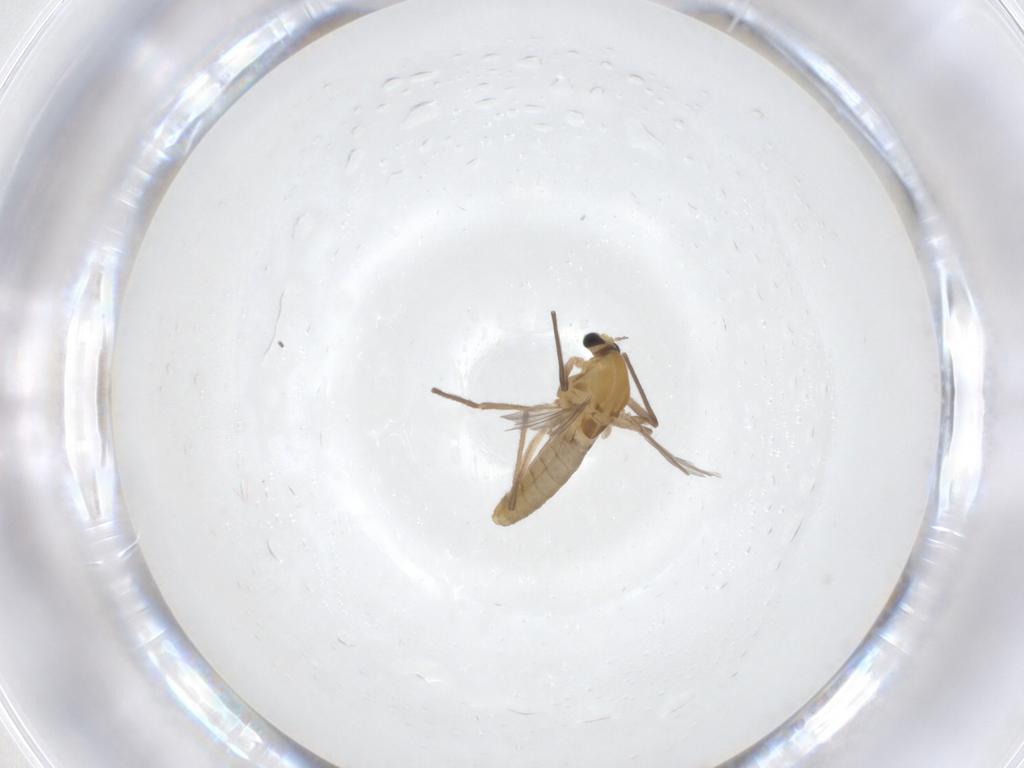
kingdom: Animalia
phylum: Arthropoda
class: Insecta
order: Diptera
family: Chironomidae
